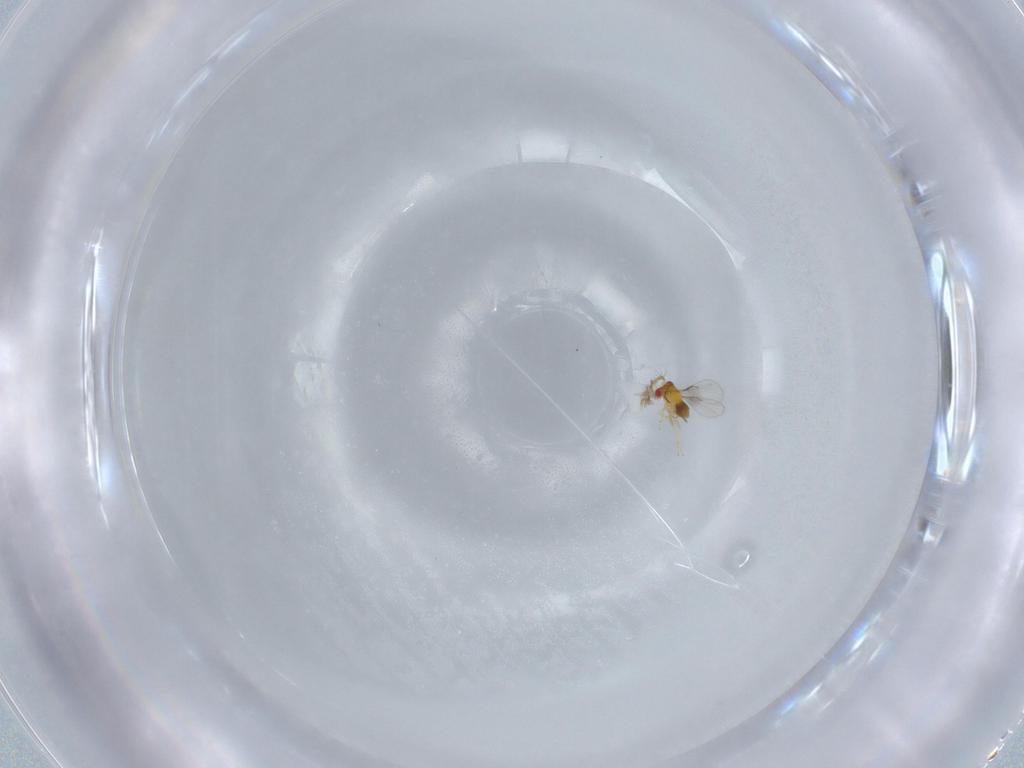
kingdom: Animalia
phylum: Arthropoda
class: Insecta
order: Hymenoptera
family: Trichogrammatidae
